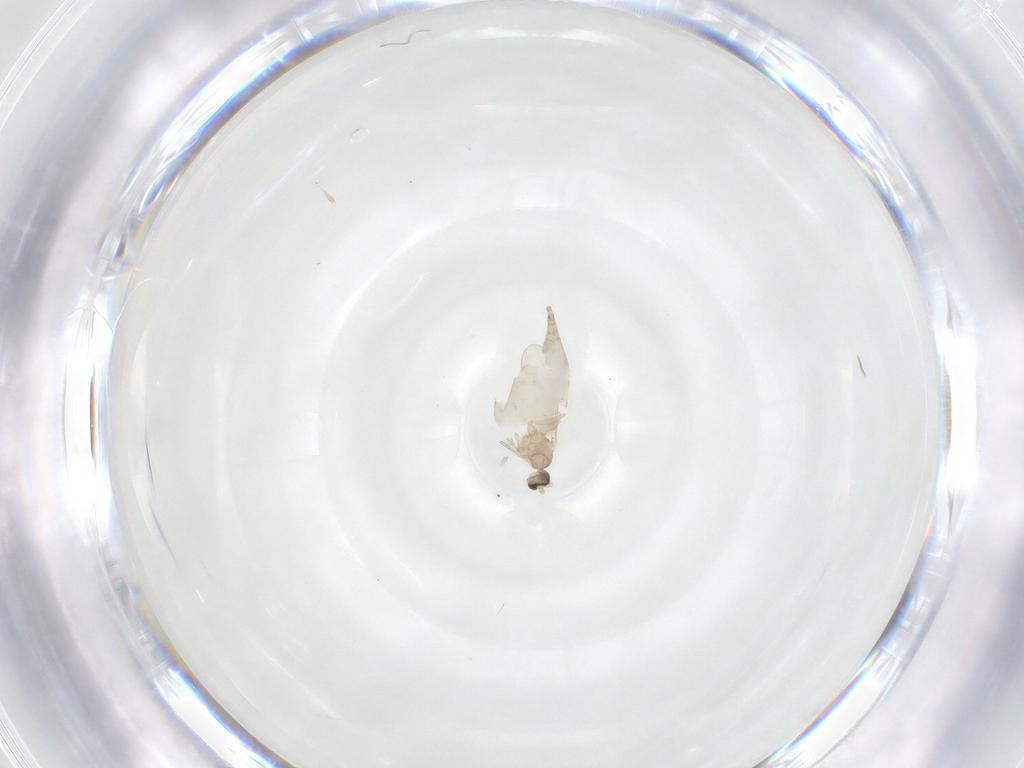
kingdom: Animalia
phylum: Arthropoda
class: Insecta
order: Diptera
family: Cecidomyiidae
